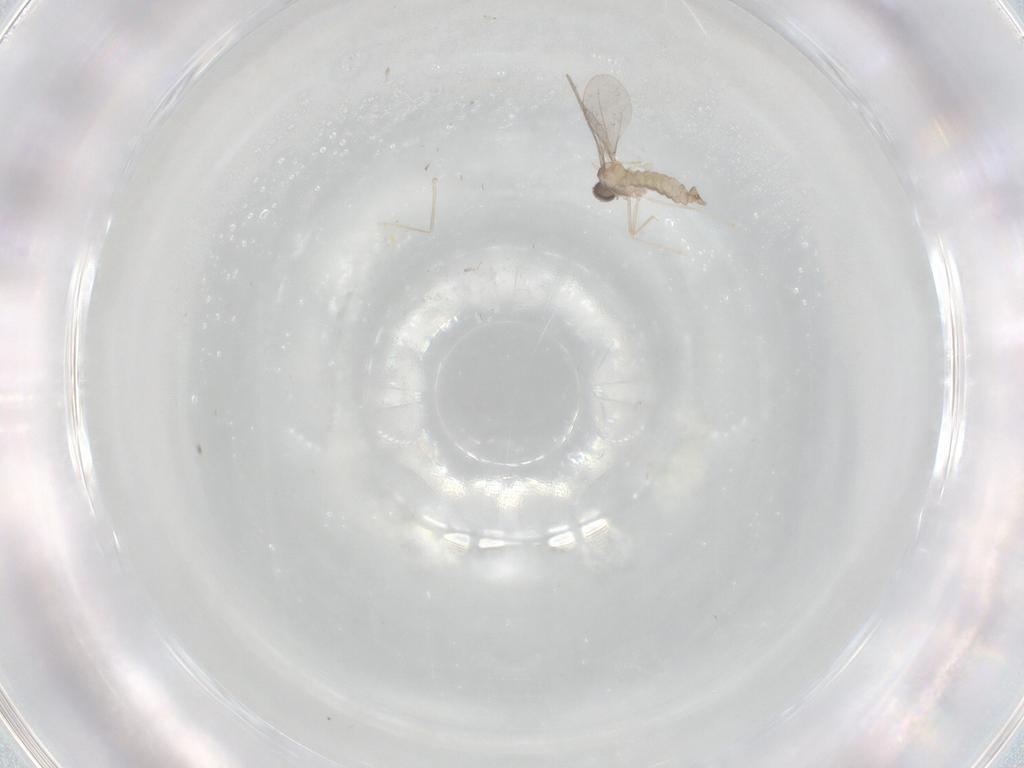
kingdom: Animalia
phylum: Arthropoda
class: Insecta
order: Diptera
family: Cecidomyiidae
